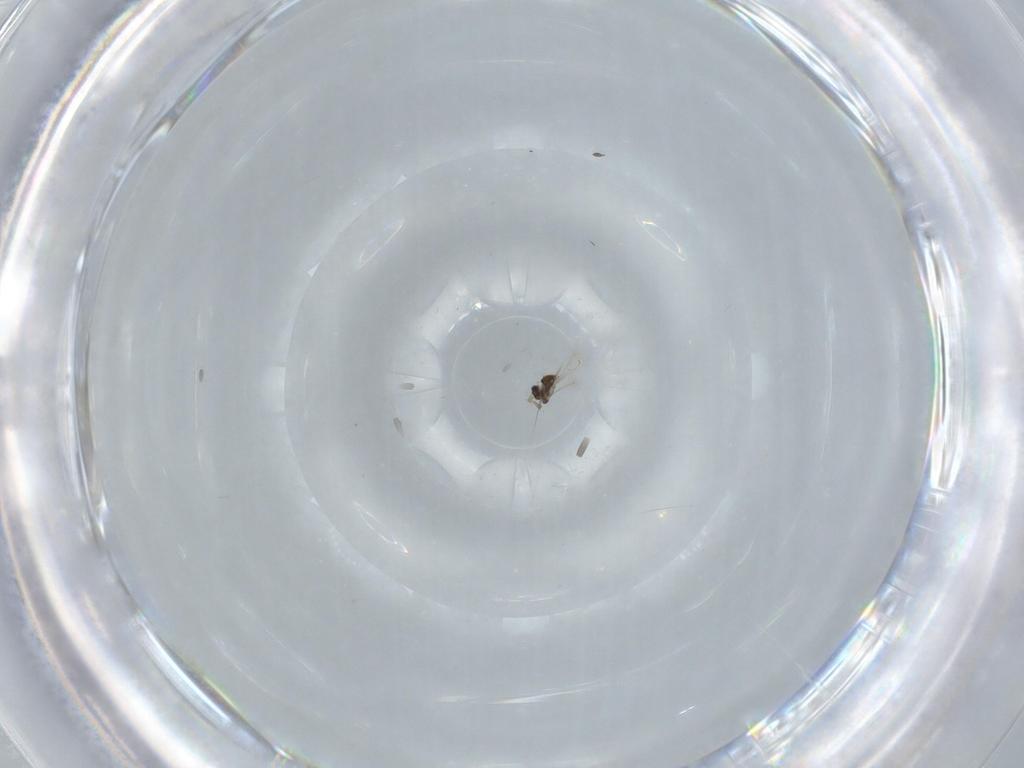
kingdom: Animalia
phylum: Arthropoda
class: Insecta
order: Hymenoptera
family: Aphelinidae
